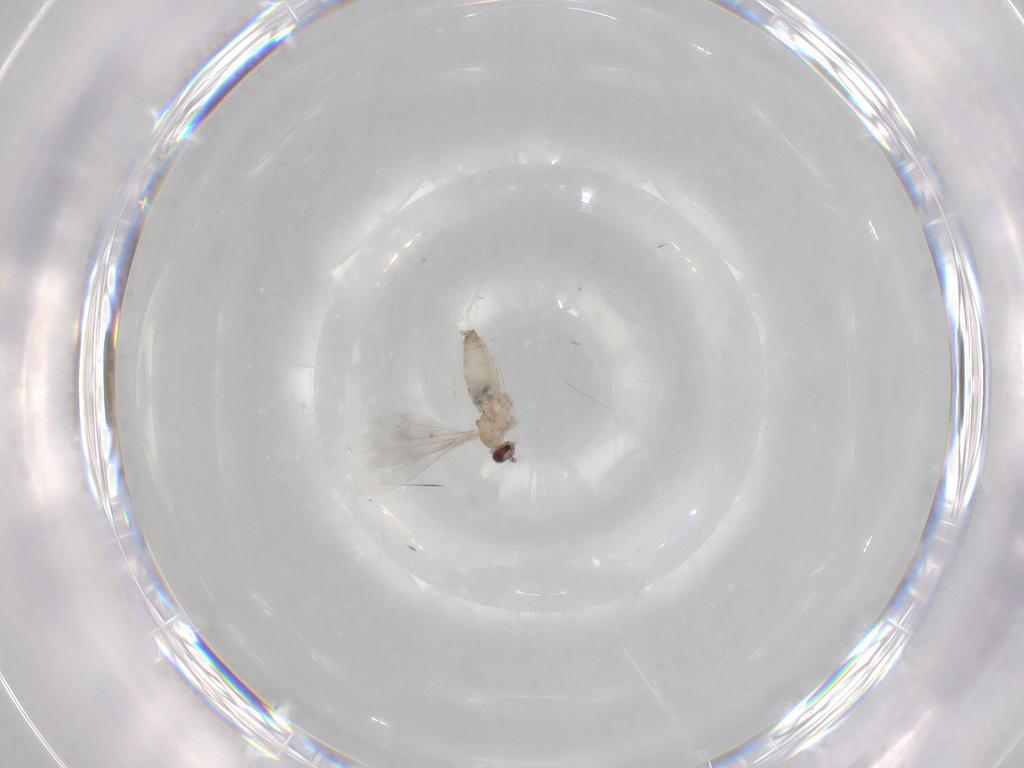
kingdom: Animalia
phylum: Arthropoda
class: Insecta
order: Diptera
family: Cecidomyiidae
